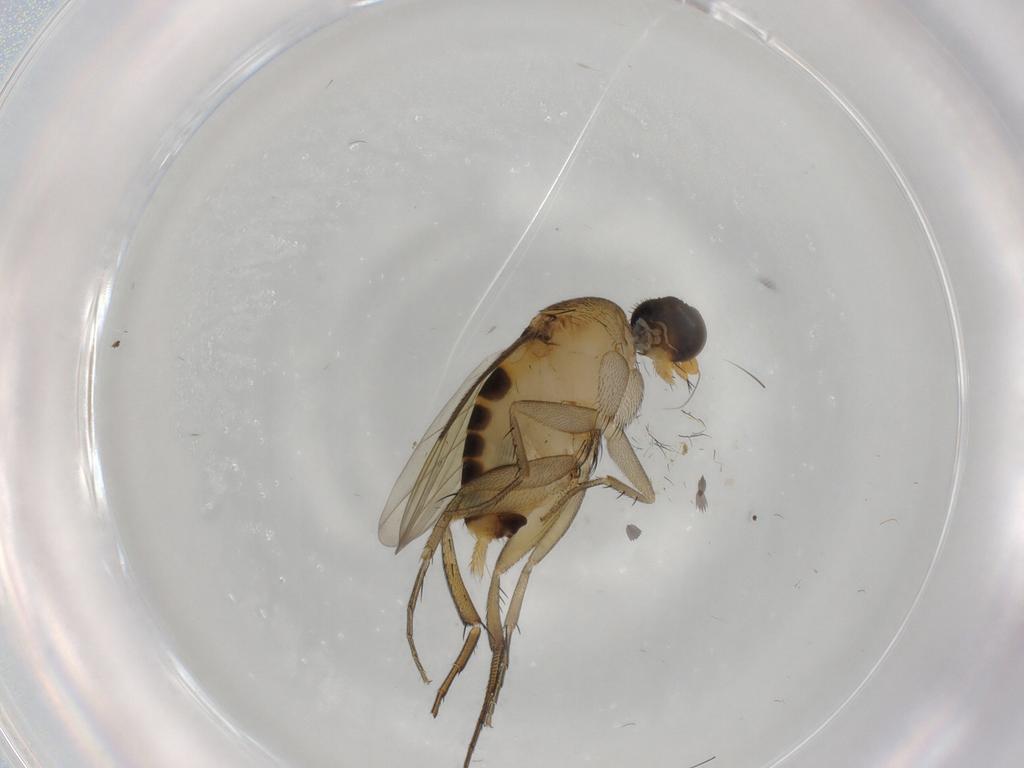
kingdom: Animalia
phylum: Arthropoda
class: Insecta
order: Diptera
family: Phoridae
